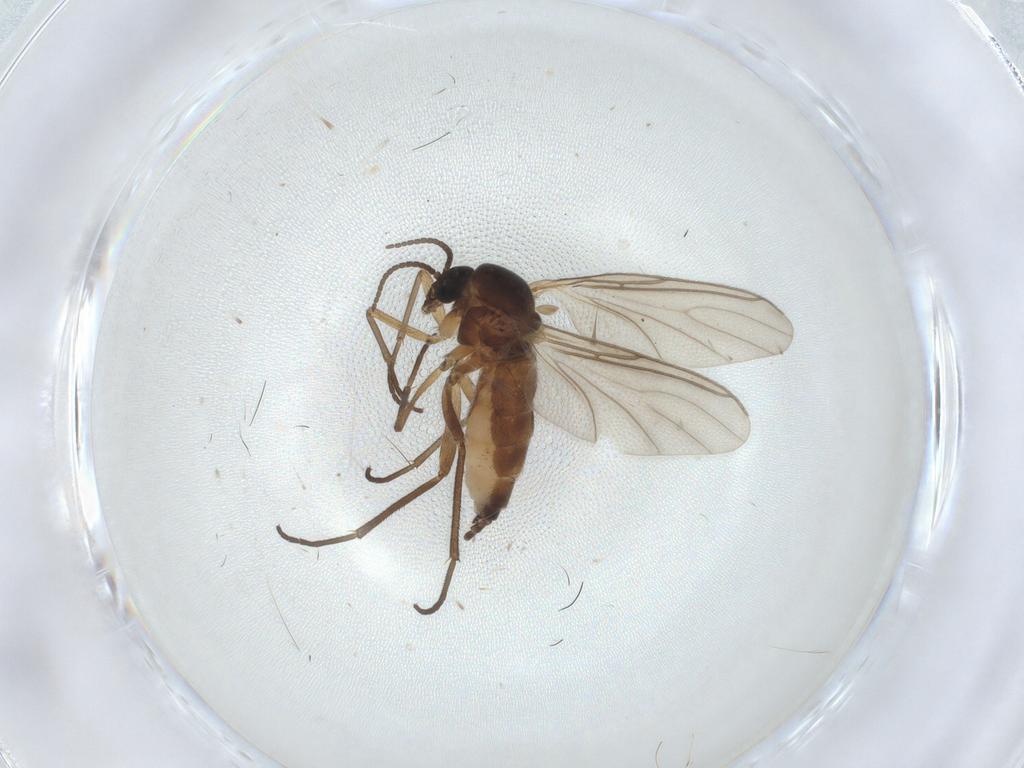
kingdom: Animalia
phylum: Arthropoda
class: Insecta
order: Diptera
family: Sciaridae
